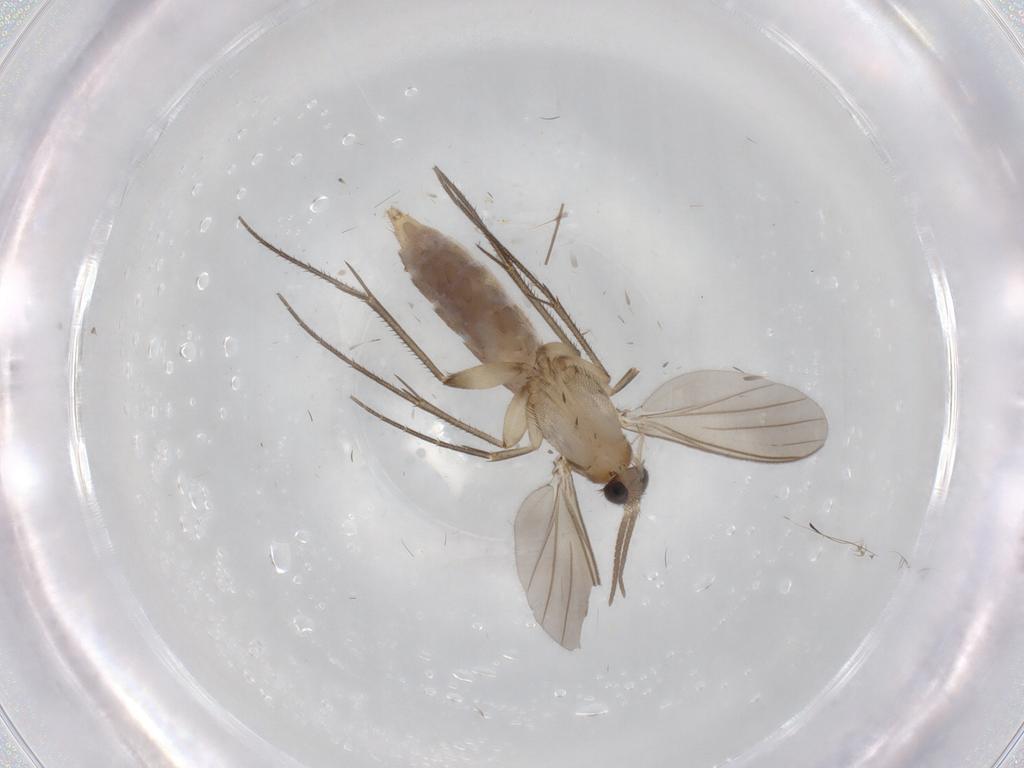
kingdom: Animalia
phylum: Arthropoda
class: Insecta
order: Diptera
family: Mycetophilidae
